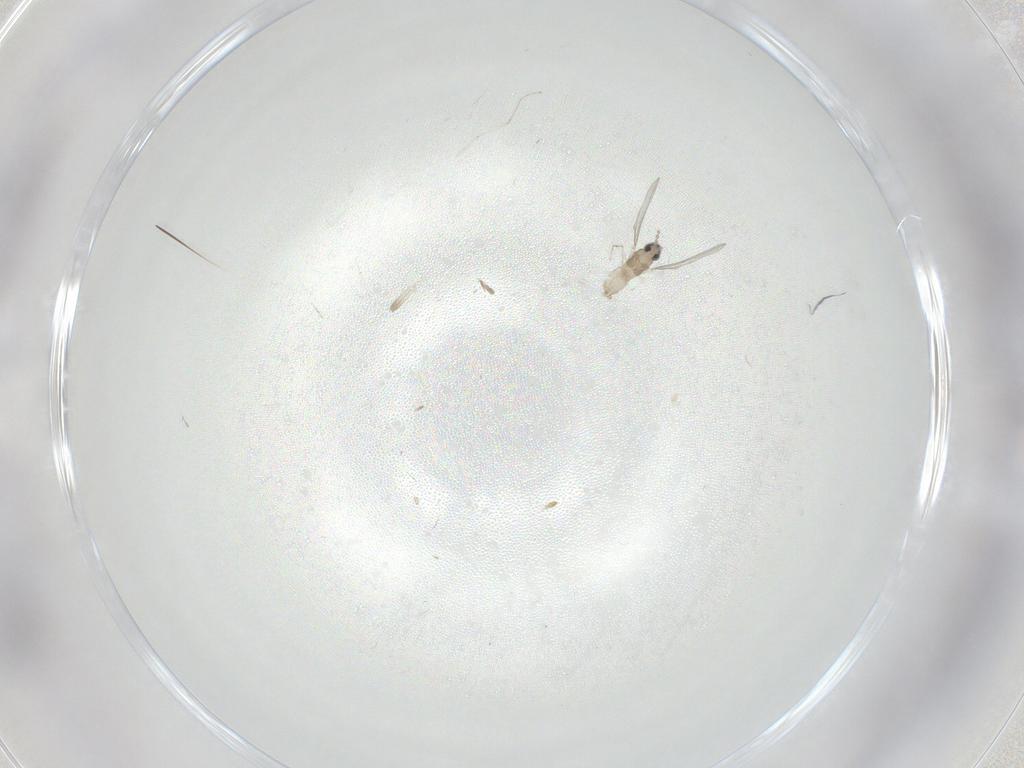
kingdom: Animalia
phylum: Arthropoda
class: Insecta
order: Diptera
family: Cecidomyiidae
